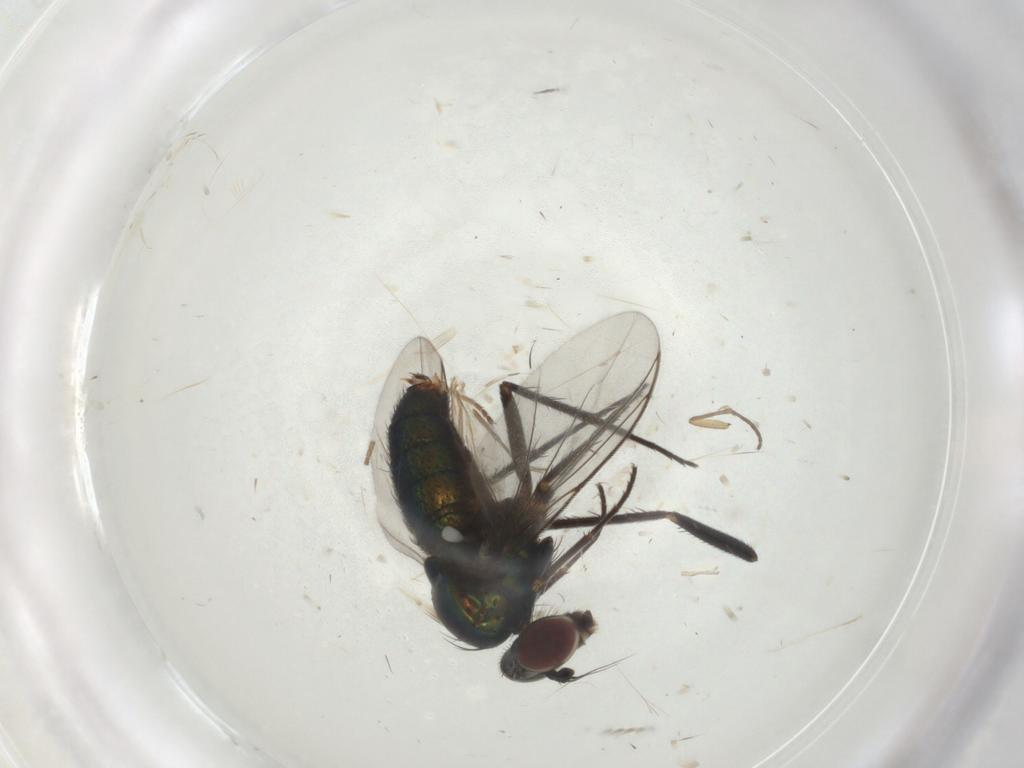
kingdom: Animalia
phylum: Arthropoda
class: Insecta
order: Diptera
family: Dolichopodidae
